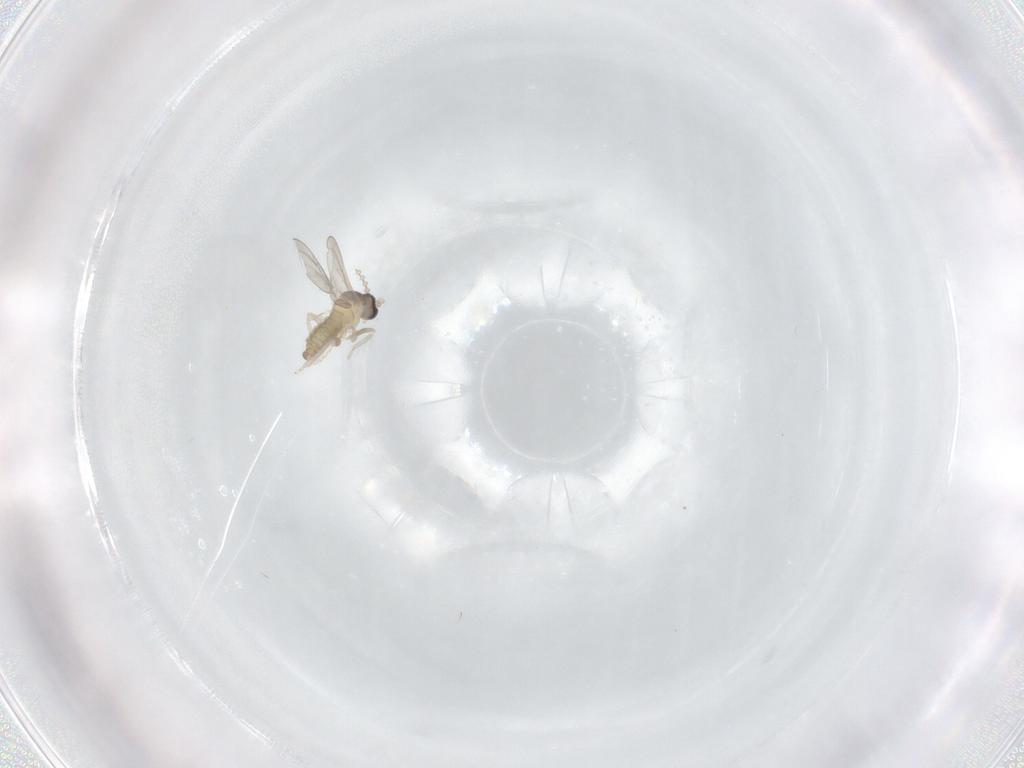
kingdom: Animalia
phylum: Arthropoda
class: Insecta
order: Diptera
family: Cecidomyiidae
